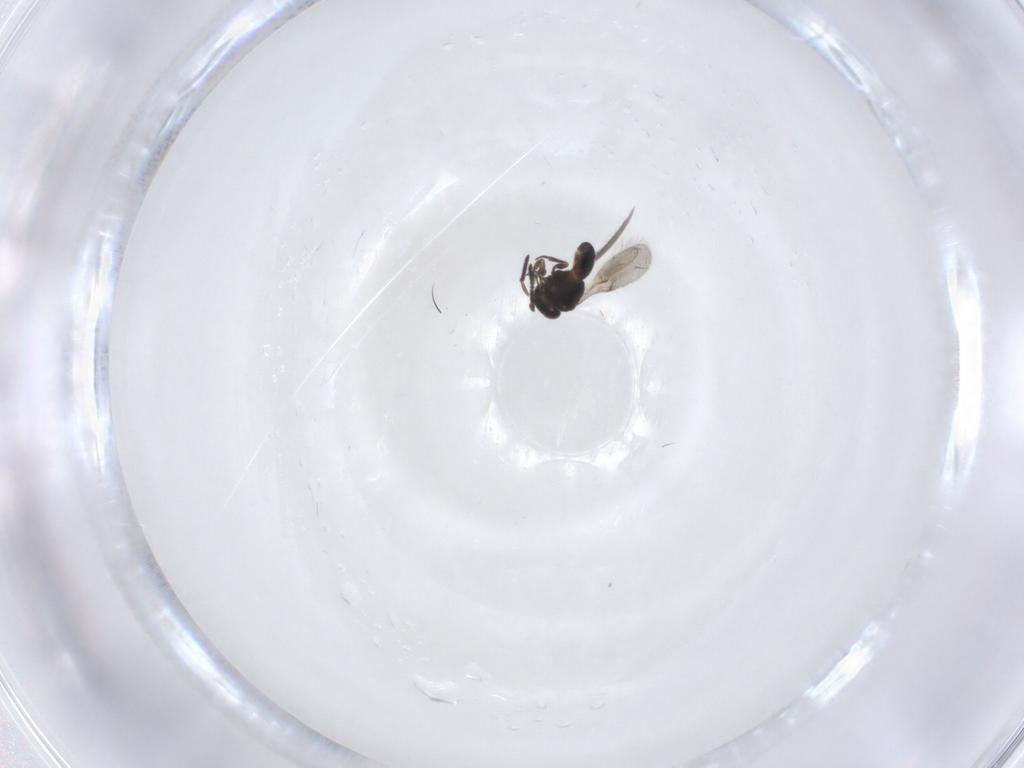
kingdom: Animalia
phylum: Arthropoda
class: Insecta
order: Hymenoptera
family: Scelionidae
